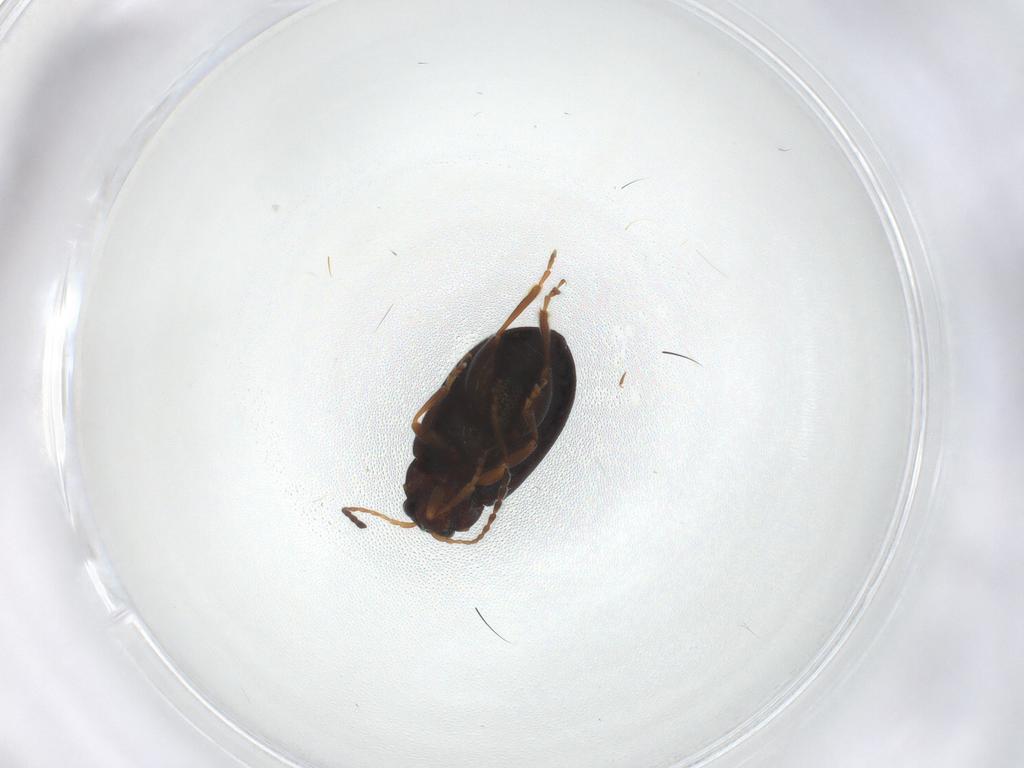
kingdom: Animalia
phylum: Arthropoda
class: Insecta
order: Coleoptera
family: Chrysomelidae
